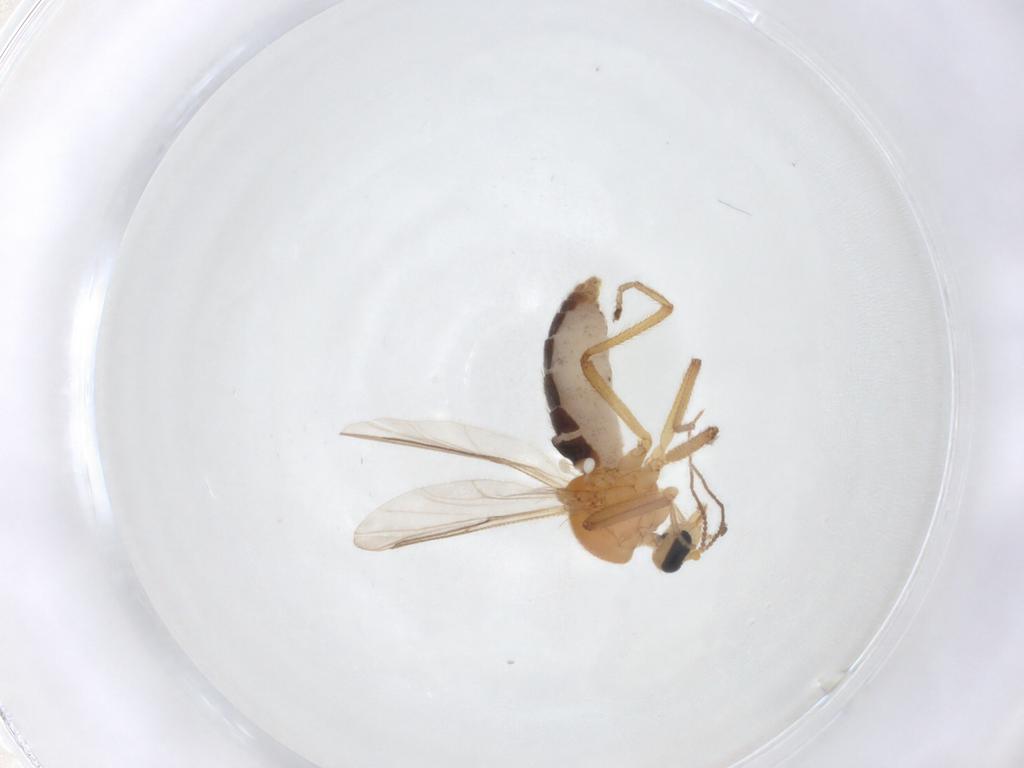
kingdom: Animalia
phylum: Arthropoda
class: Insecta
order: Diptera
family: Ceratopogonidae
